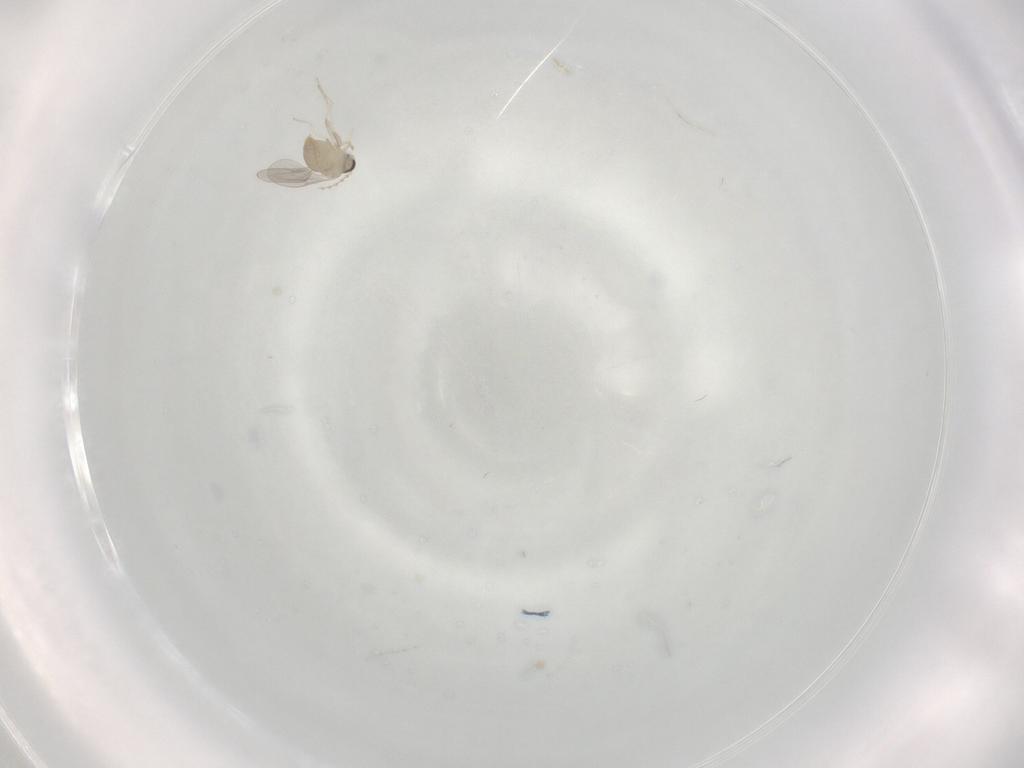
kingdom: Animalia
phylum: Arthropoda
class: Insecta
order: Diptera
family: Cecidomyiidae
